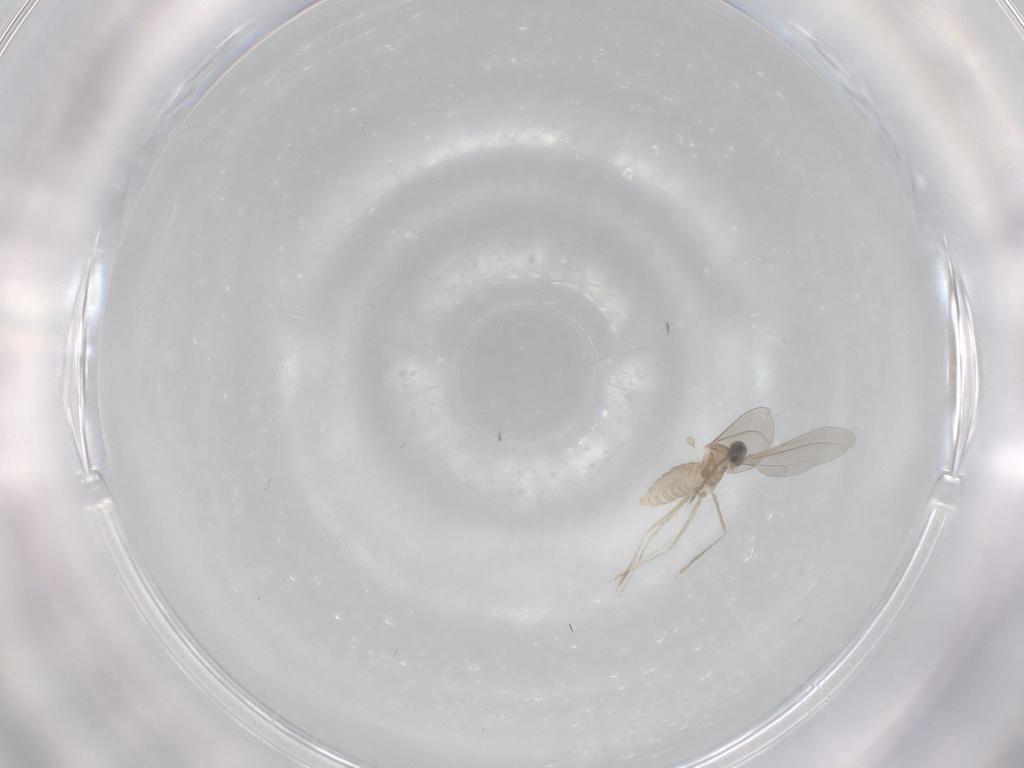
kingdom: Animalia
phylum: Arthropoda
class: Insecta
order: Diptera
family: Cecidomyiidae
